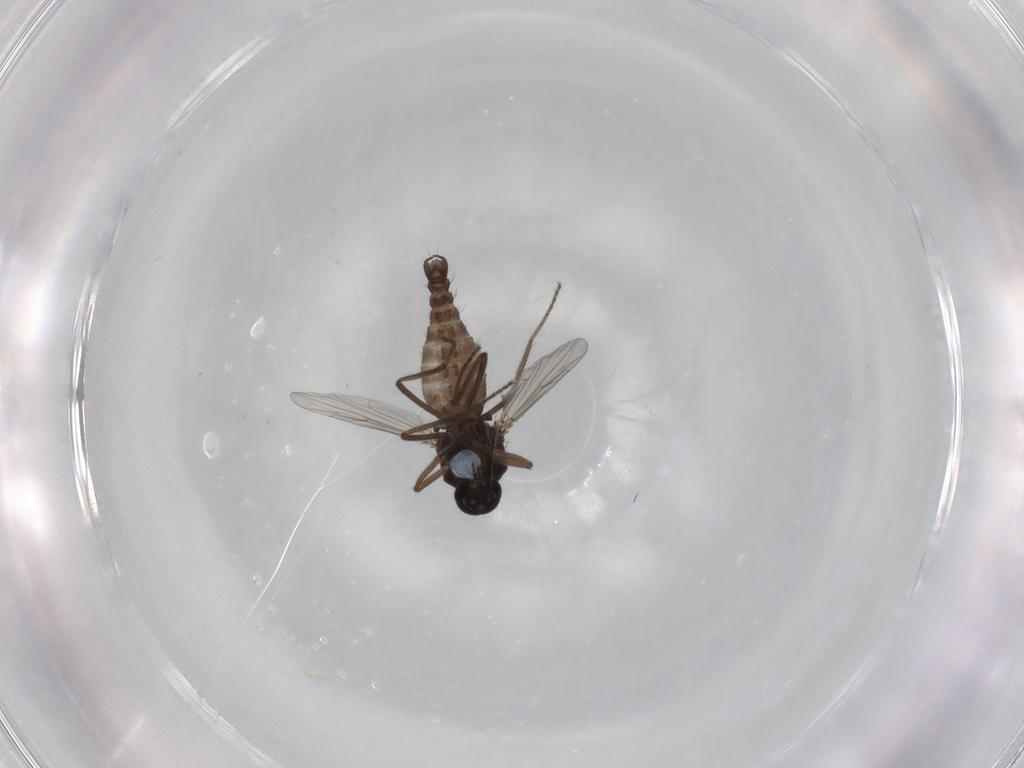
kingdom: Animalia
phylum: Arthropoda
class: Insecta
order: Diptera
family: Ceratopogonidae
